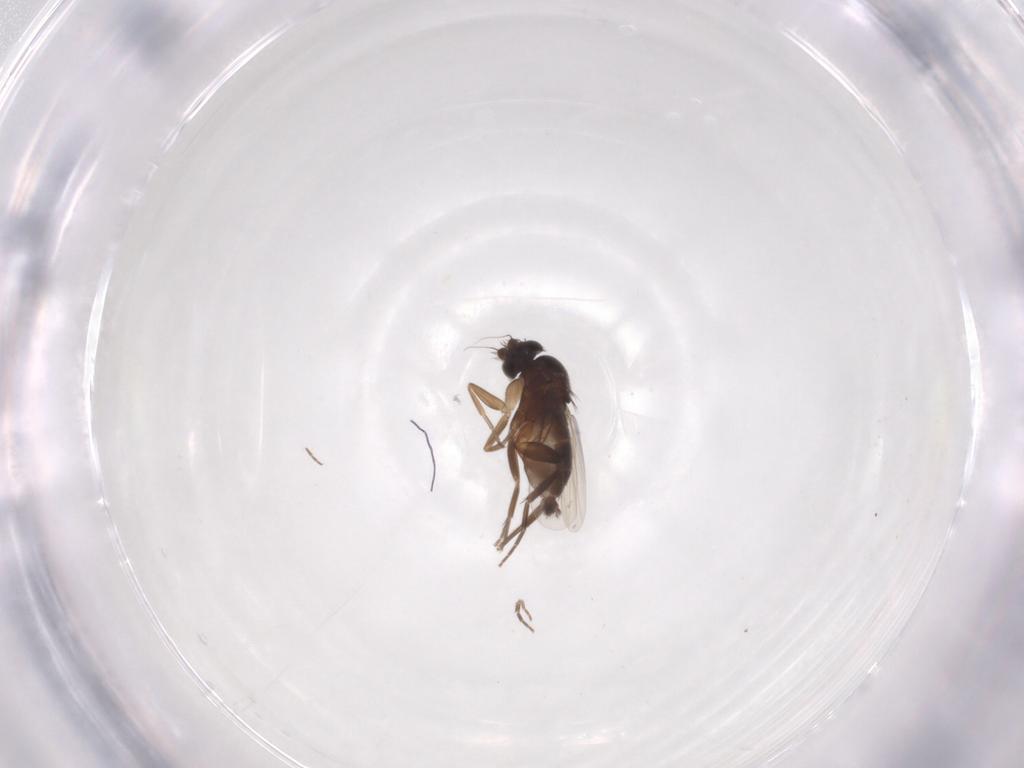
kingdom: Animalia
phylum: Arthropoda
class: Insecta
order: Diptera
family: Phoridae
